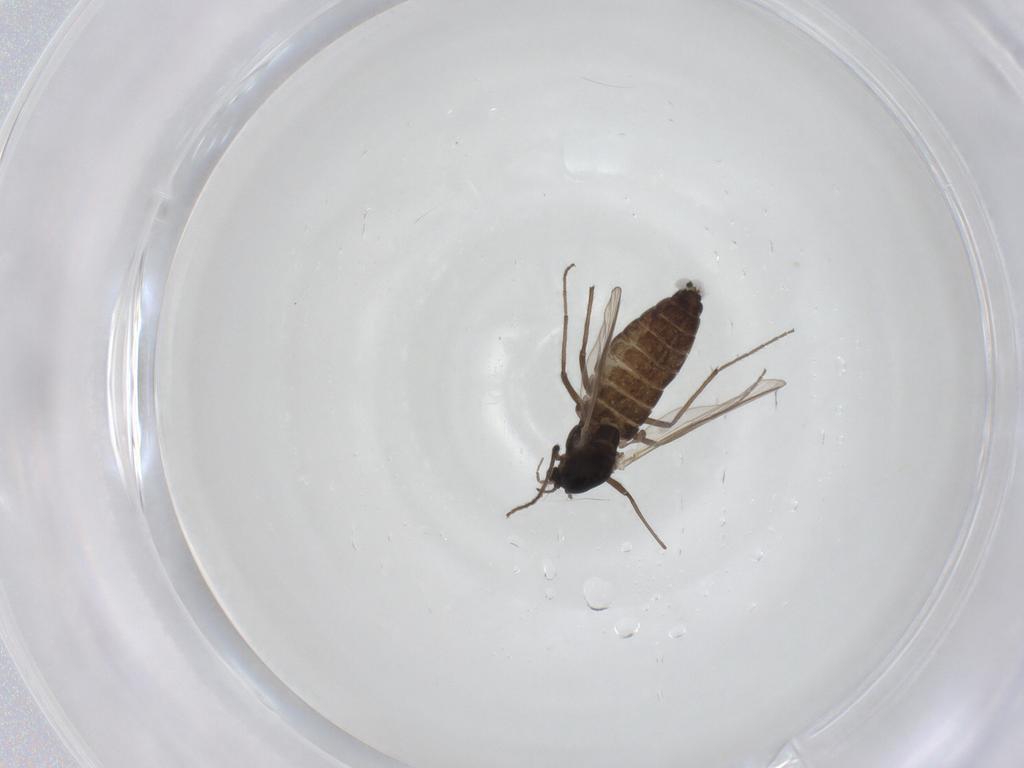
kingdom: Animalia
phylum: Arthropoda
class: Insecta
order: Diptera
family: Chironomidae
